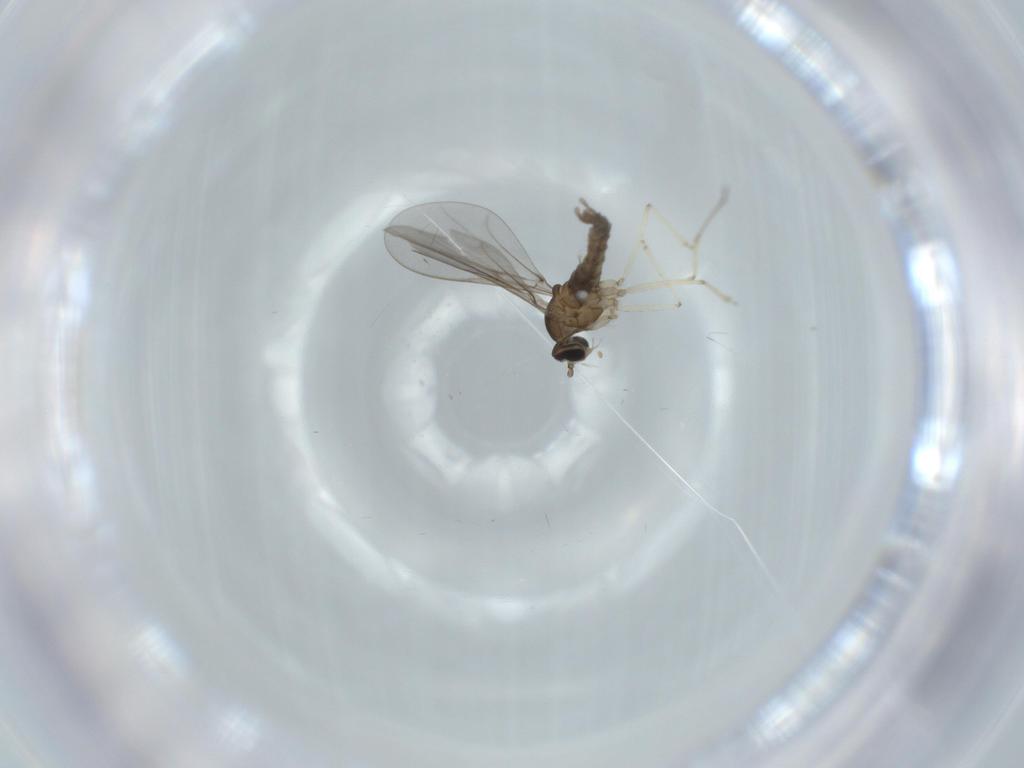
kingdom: Animalia
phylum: Arthropoda
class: Insecta
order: Diptera
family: Cecidomyiidae
